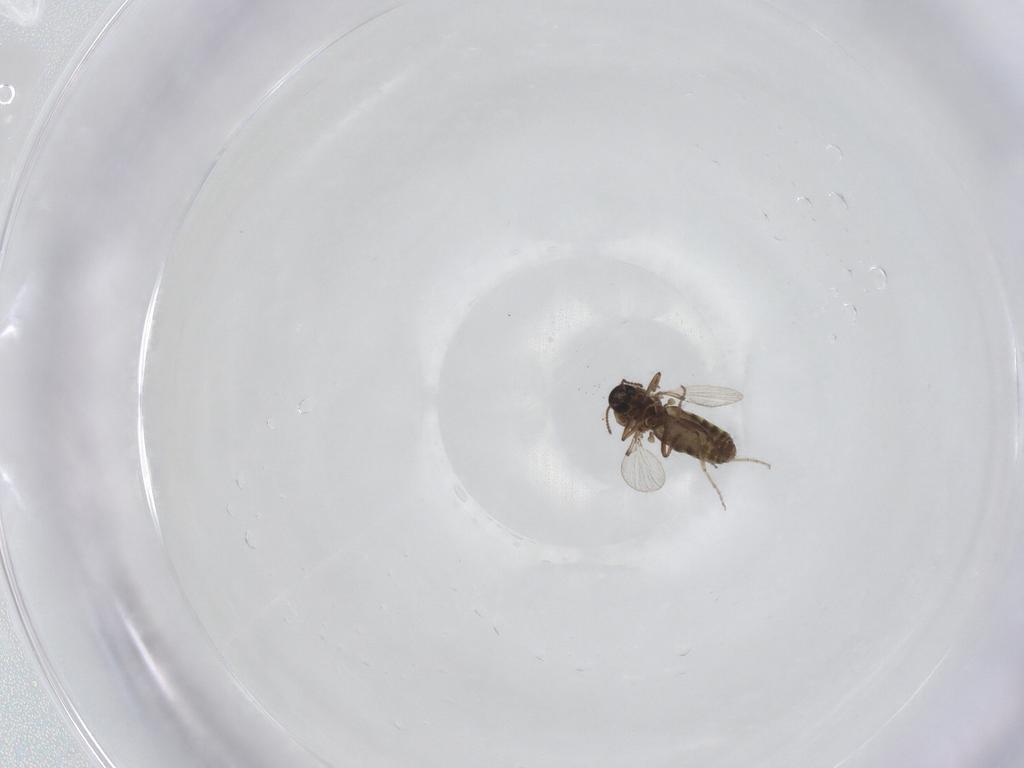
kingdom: Animalia
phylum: Arthropoda
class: Insecta
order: Diptera
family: Ceratopogonidae
